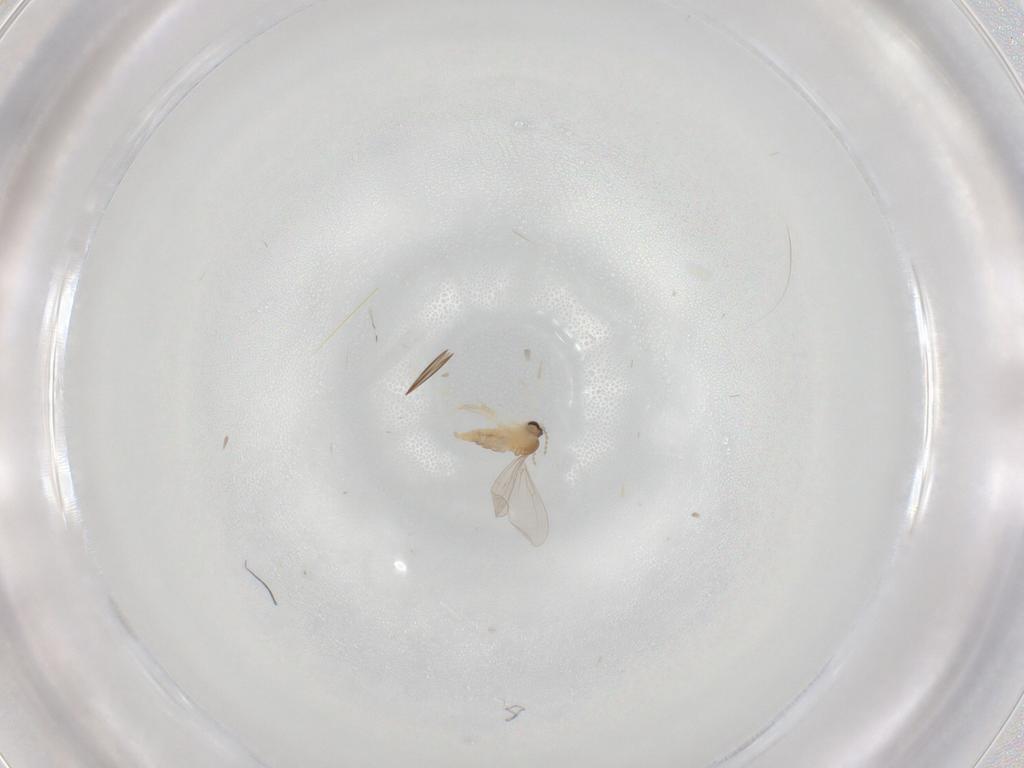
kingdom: Animalia
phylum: Arthropoda
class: Insecta
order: Diptera
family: Cecidomyiidae
